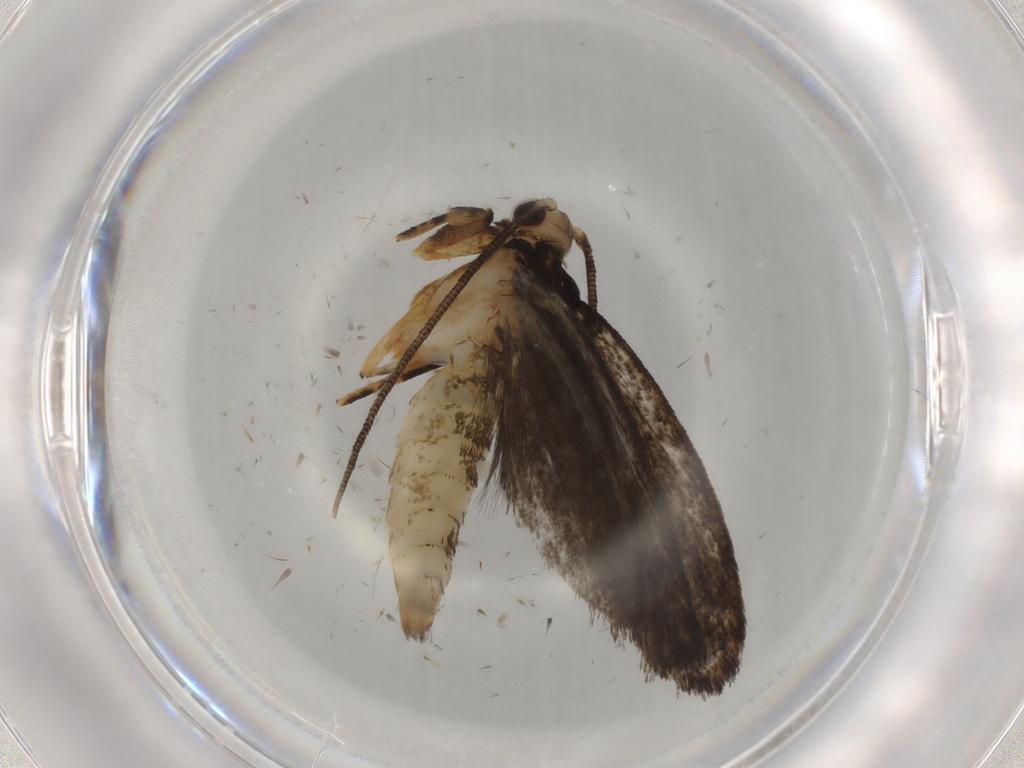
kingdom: Animalia
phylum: Arthropoda
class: Insecta
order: Lepidoptera
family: Tineidae
